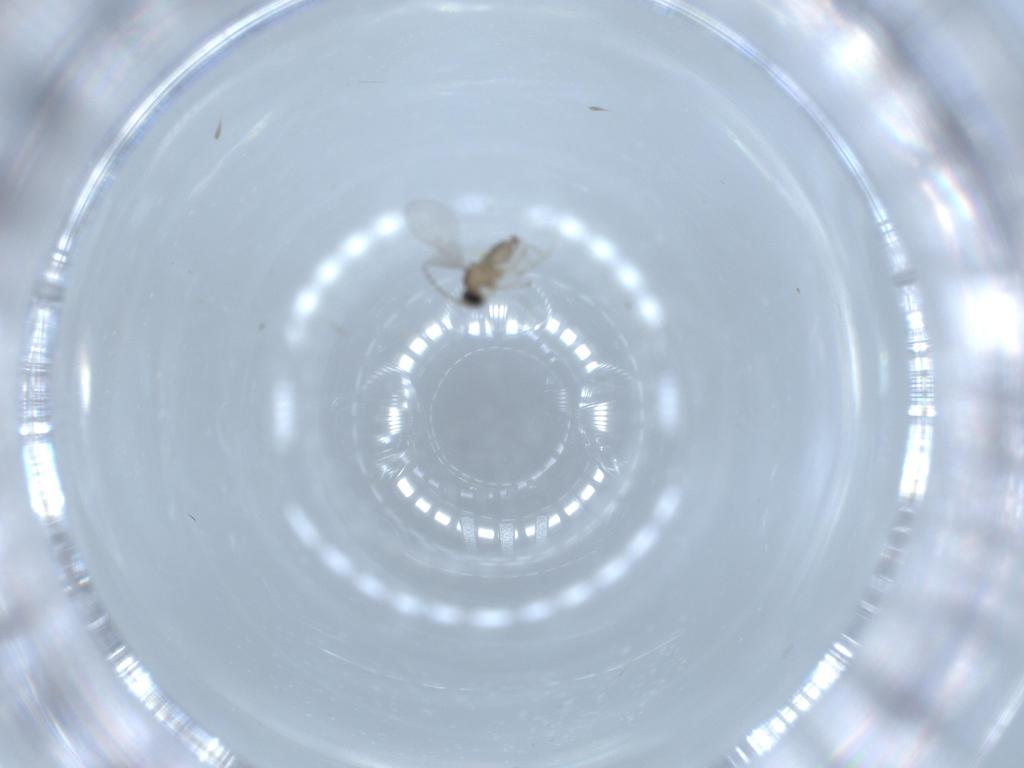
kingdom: Animalia
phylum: Arthropoda
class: Insecta
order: Diptera
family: Cecidomyiidae
